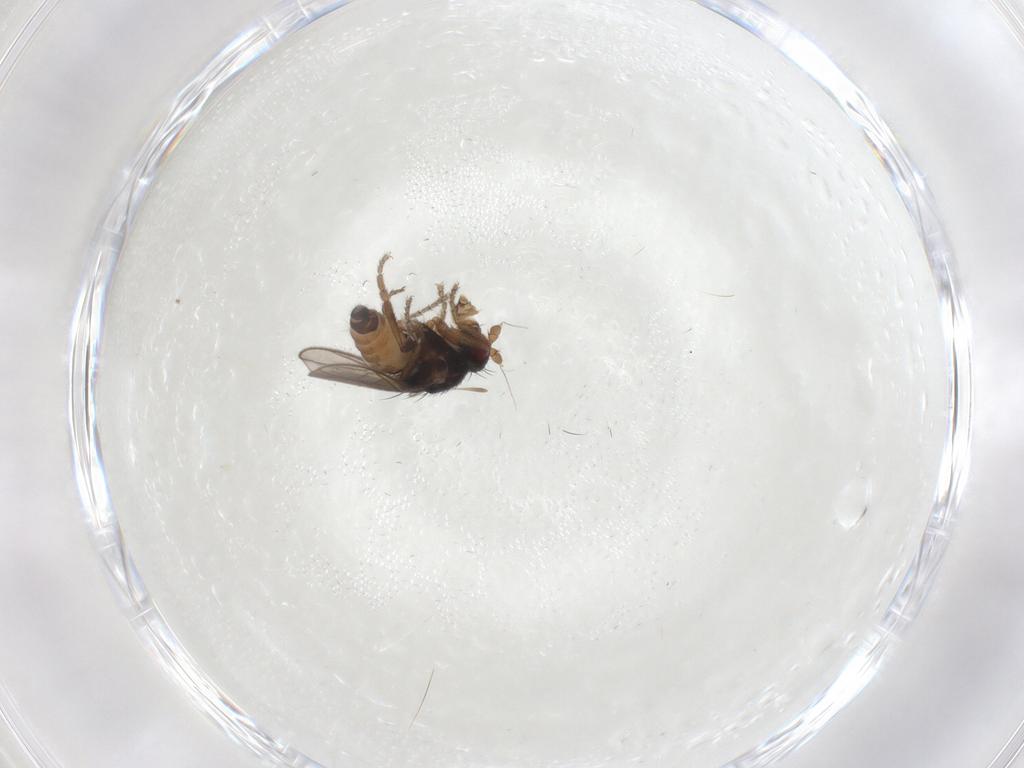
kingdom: Animalia
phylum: Arthropoda
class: Insecta
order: Diptera
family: Sphaeroceridae
